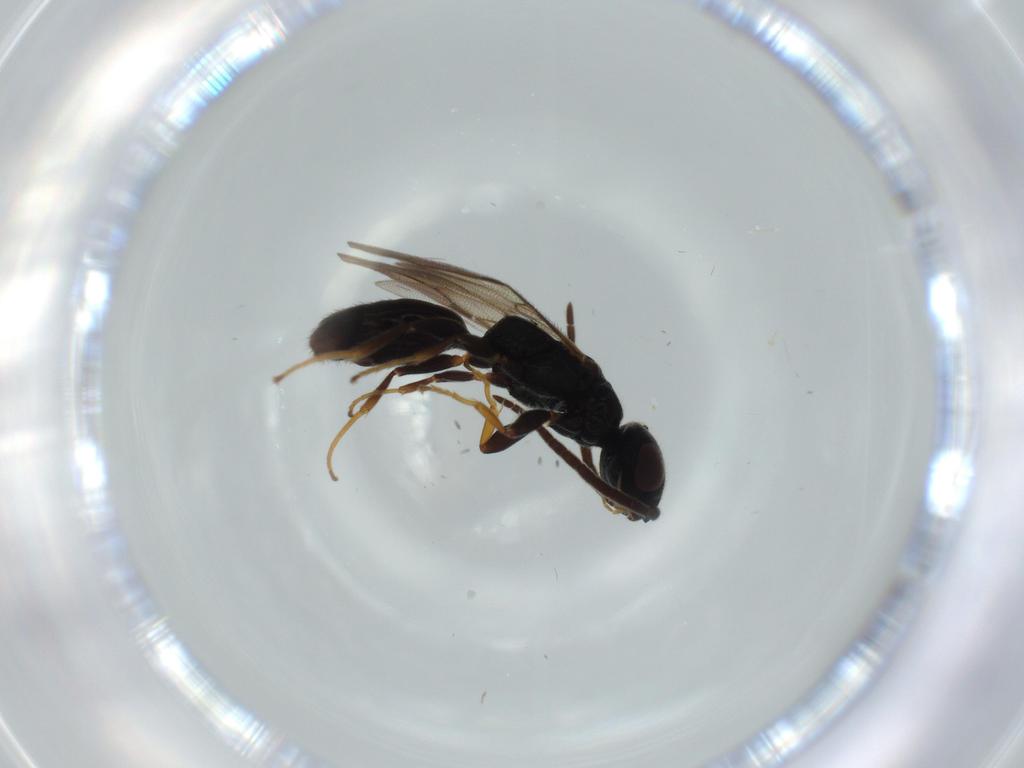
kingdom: Animalia
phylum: Arthropoda
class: Insecta
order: Hymenoptera
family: Bethylidae
